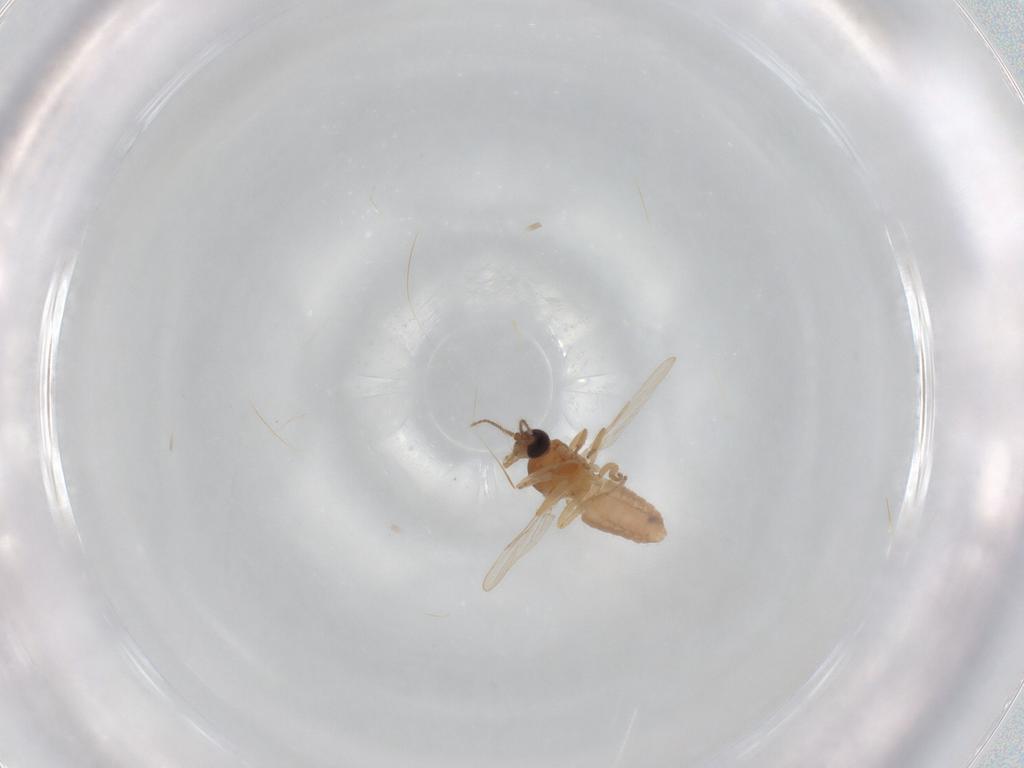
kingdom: Animalia
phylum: Arthropoda
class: Insecta
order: Diptera
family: Ceratopogonidae
